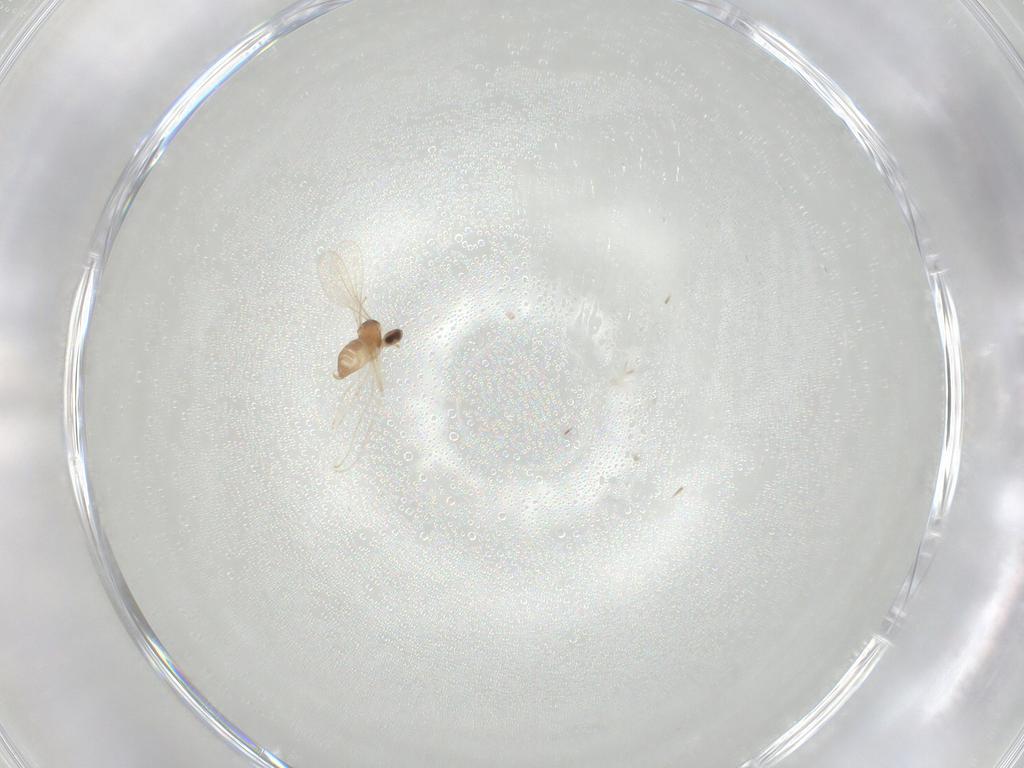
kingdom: Animalia
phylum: Arthropoda
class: Insecta
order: Diptera
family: Cecidomyiidae
